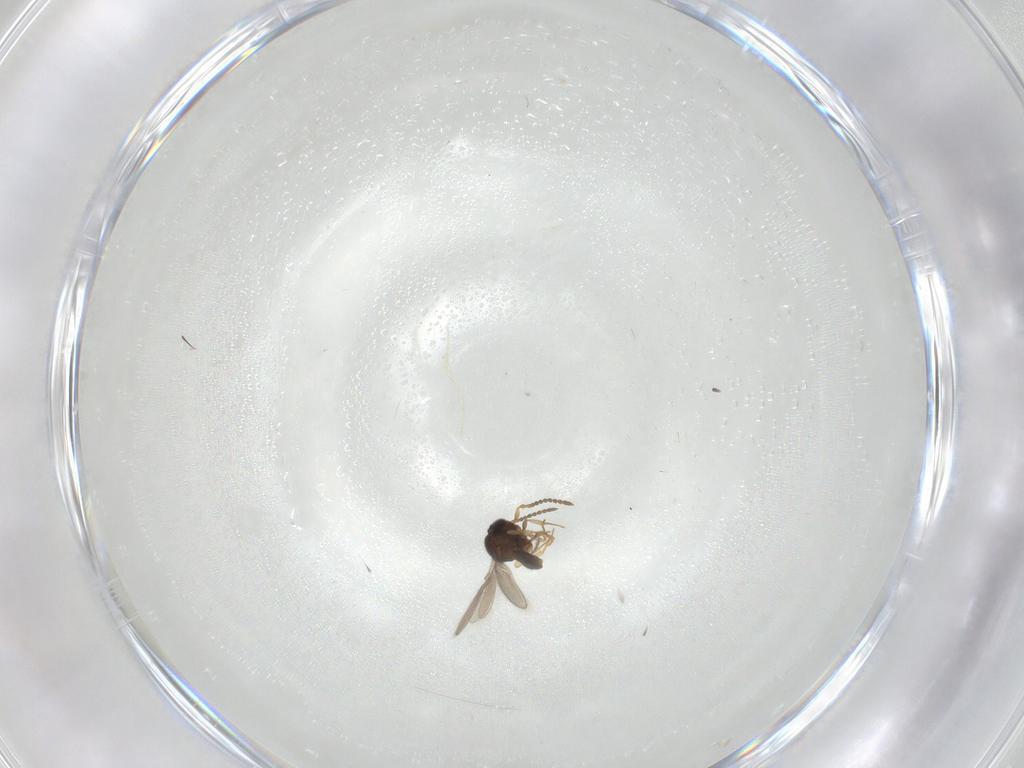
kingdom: Animalia
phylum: Arthropoda
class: Insecta
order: Hymenoptera
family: Scelionidae
